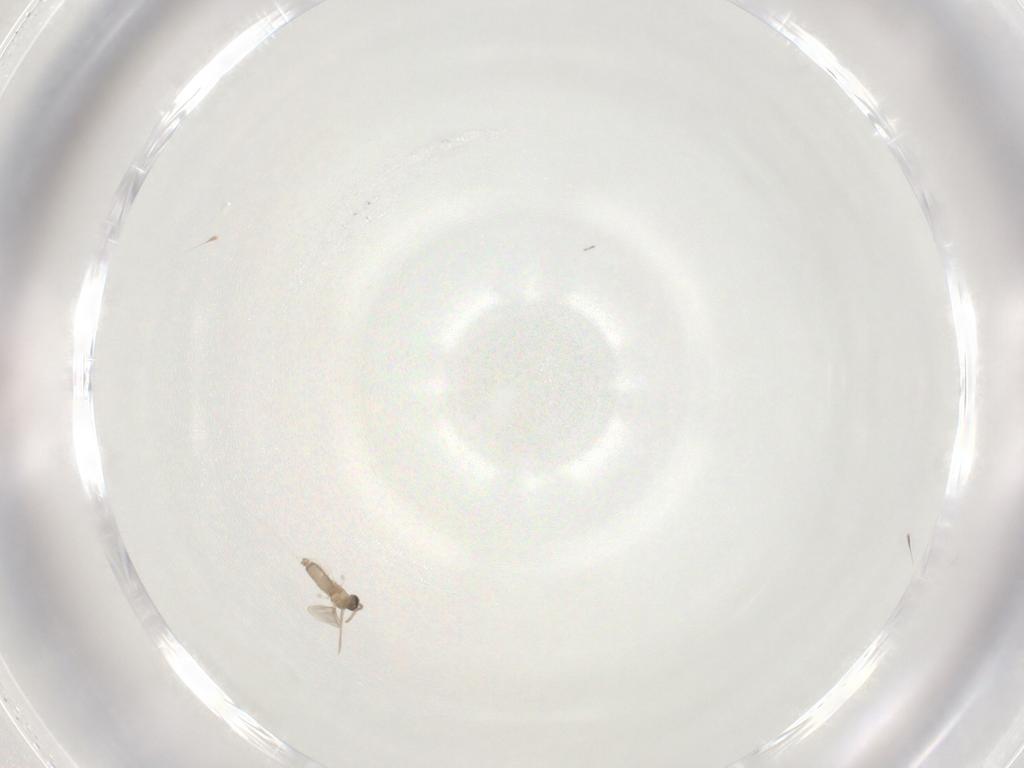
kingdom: Animalia
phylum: Arthropoda
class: Insecta
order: Diptera
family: Cecidomyiidae
